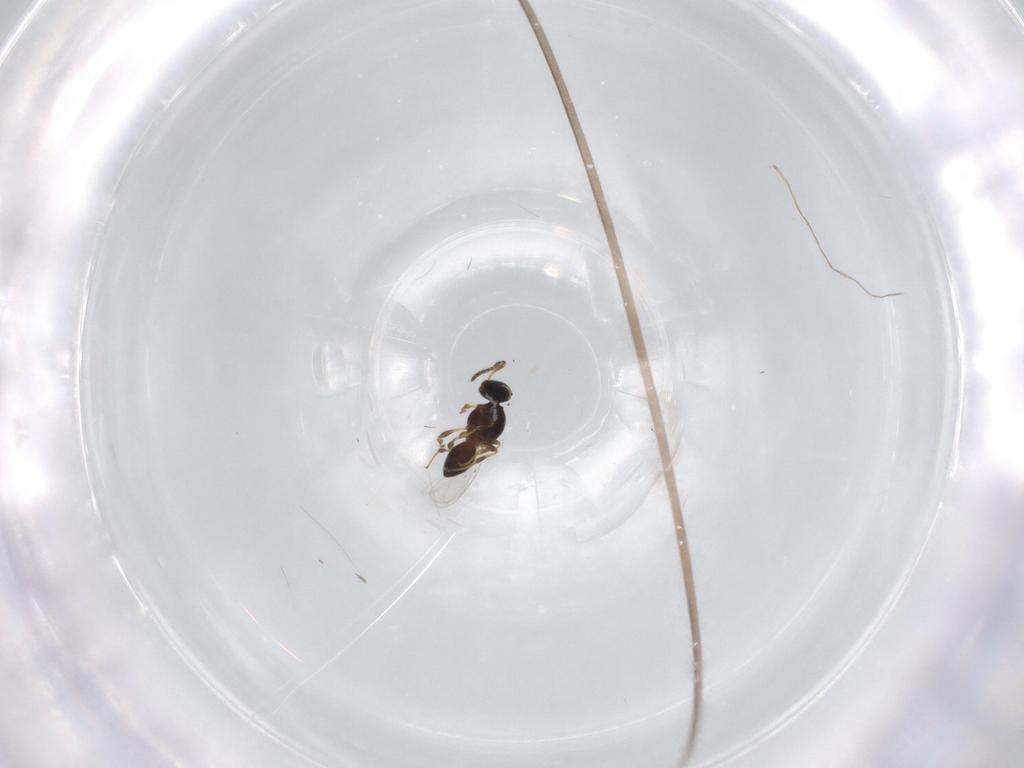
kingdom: Animalia
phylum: Arthropoda
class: Insecta
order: Hymenoptera
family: Platygastridae
